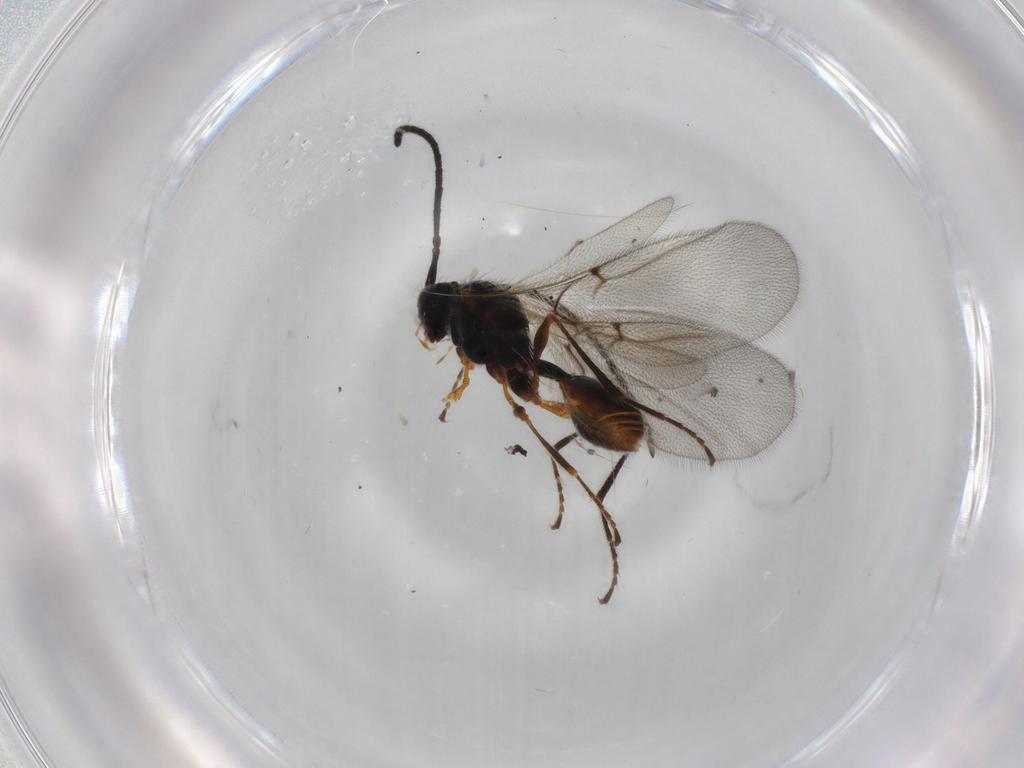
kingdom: Animalia
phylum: Arthropoda
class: Insecta
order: Hymenoptera
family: Diapriidae
